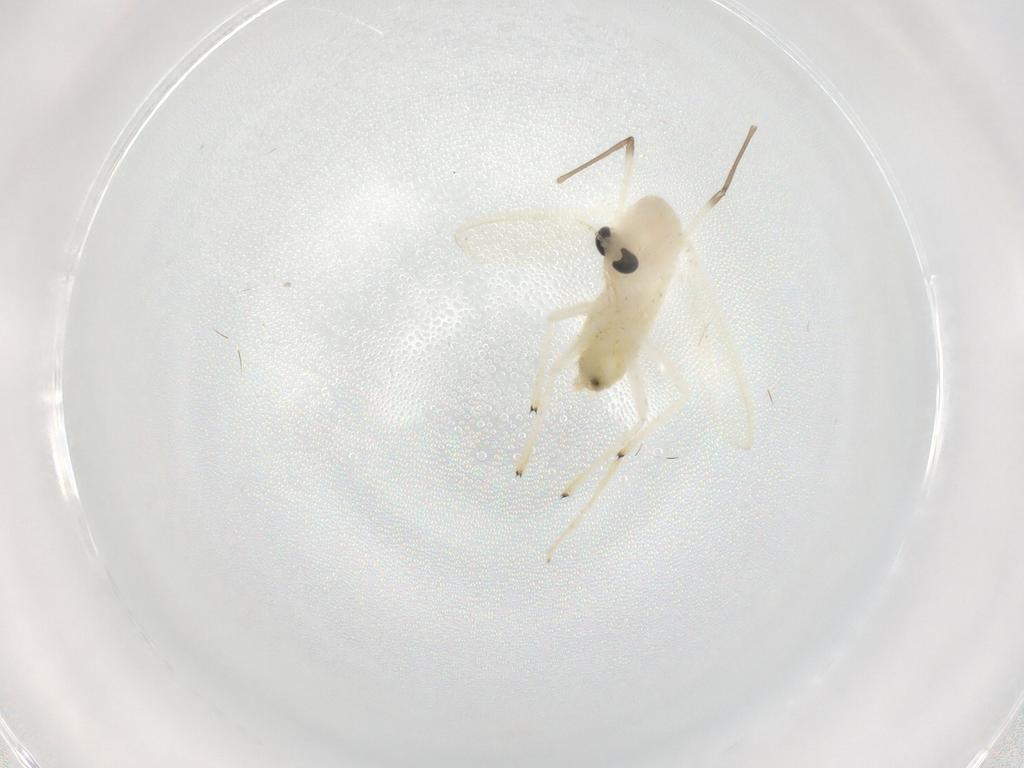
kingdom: Animalia
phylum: Arthropoda
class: Insecta
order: Diptera
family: Chironomidae
